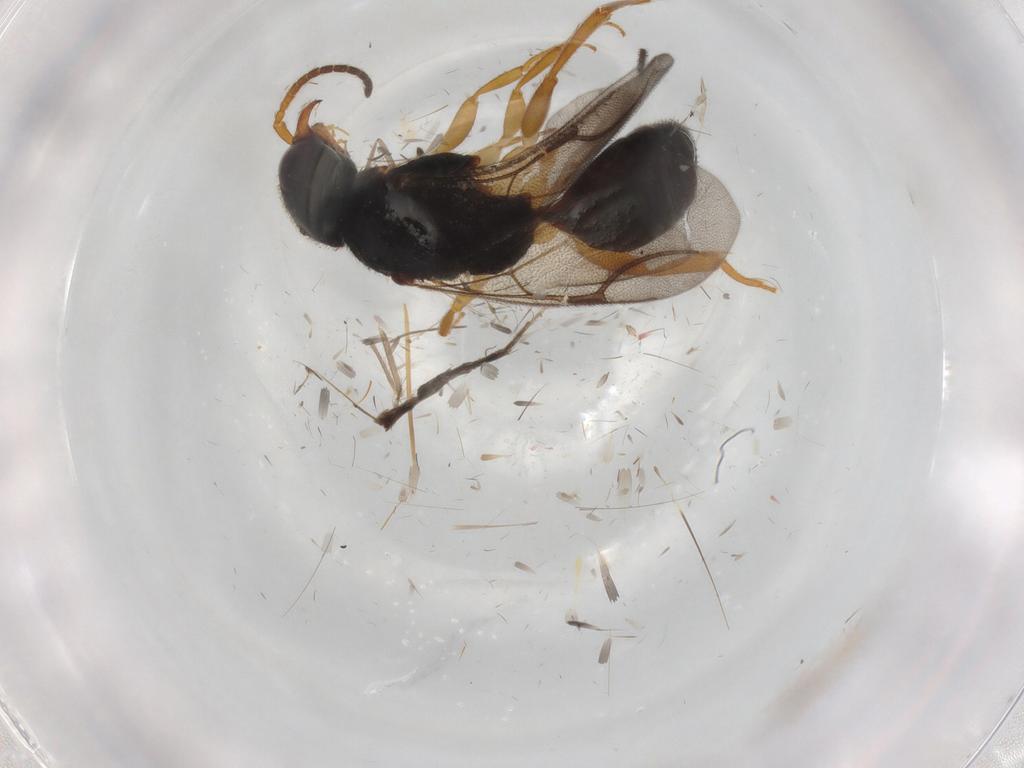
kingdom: Animalia
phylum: Arthropoda
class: Insecta
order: Hymenoptera
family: Bethylidae
